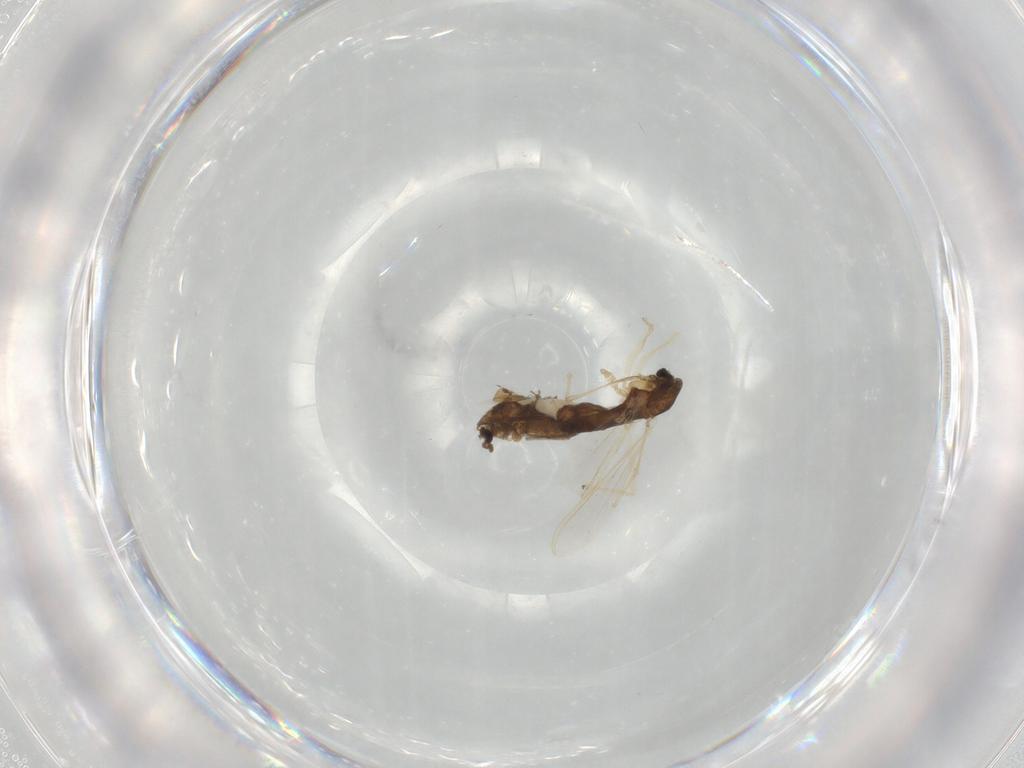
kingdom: Animalia
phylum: Arthropoda
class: Insecta
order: Diptera
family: Chironomidae
